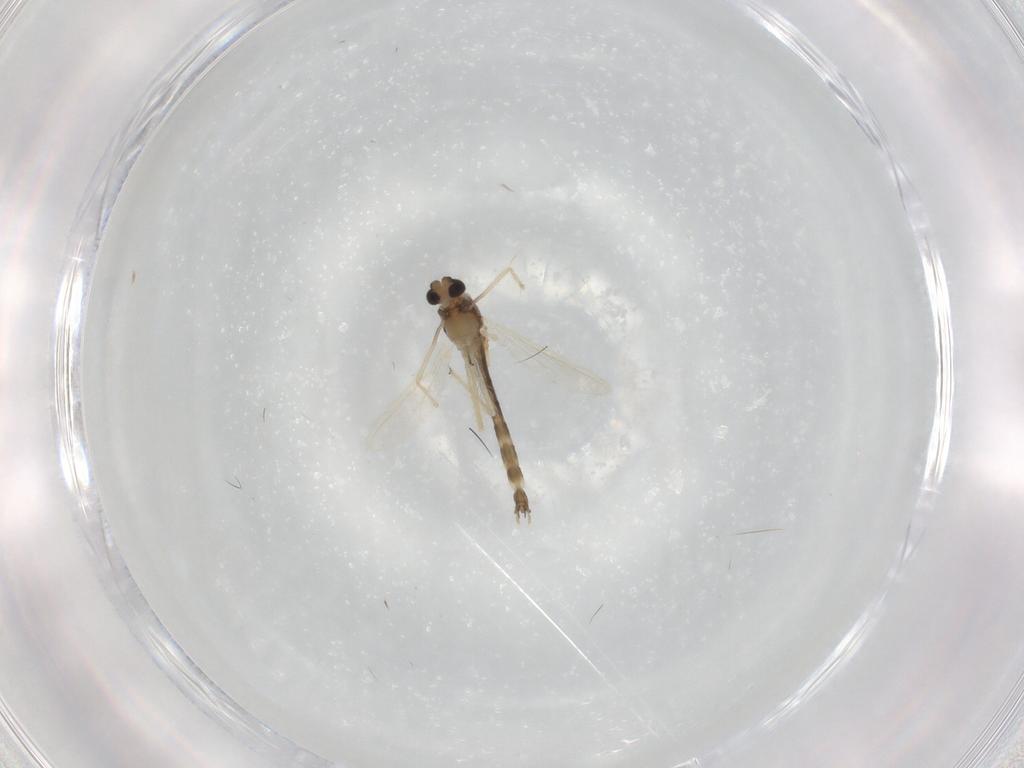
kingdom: Animalia
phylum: Arthropoda
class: Insecta
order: Diptera
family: Chironomidae
